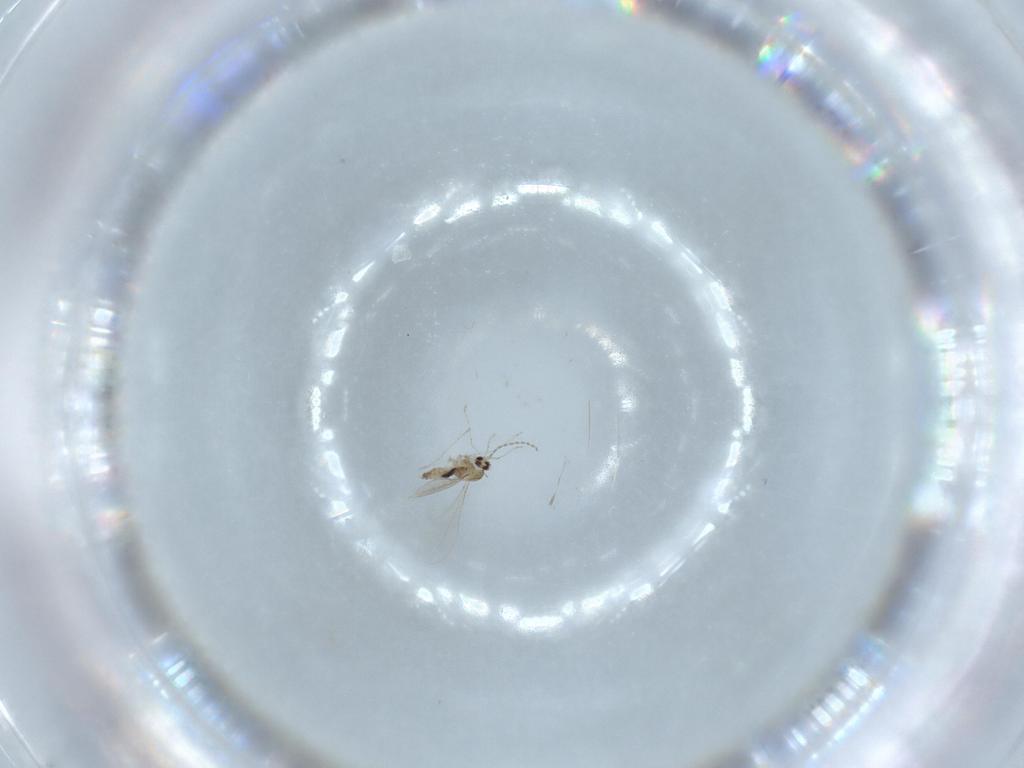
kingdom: Animalia
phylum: Arthropoda
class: Insecta
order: Diptera
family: Cecidomyiidae
